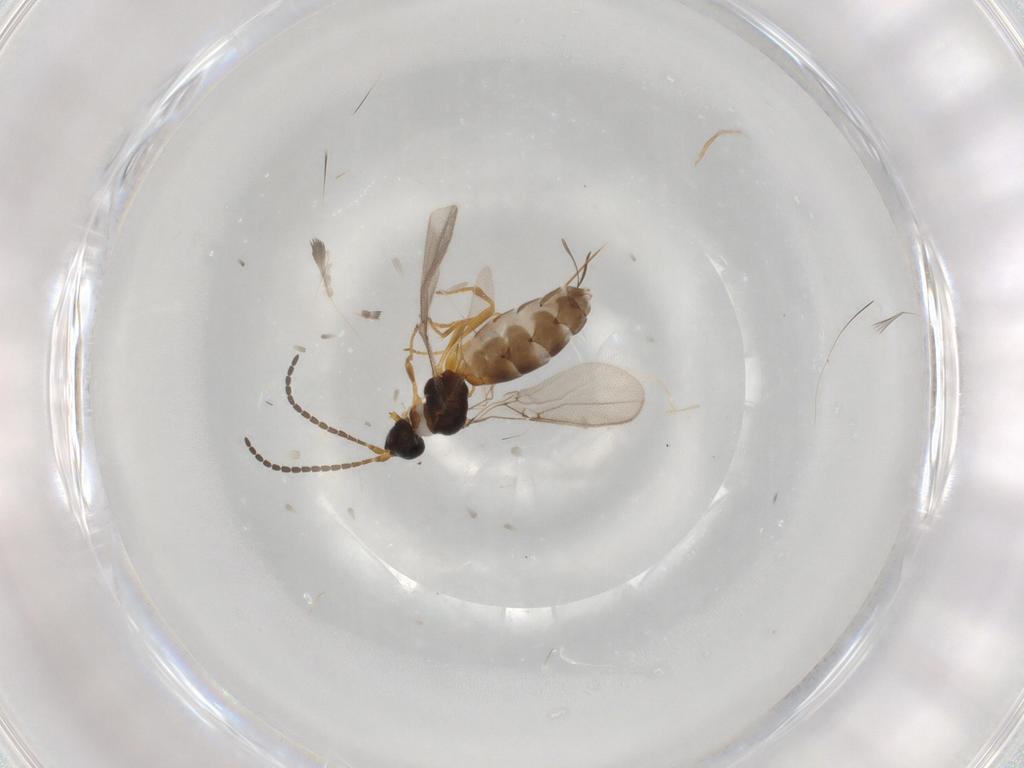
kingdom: Animalia
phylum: Arthropoda
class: Insecta
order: Hymenoptera
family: Braconidae
